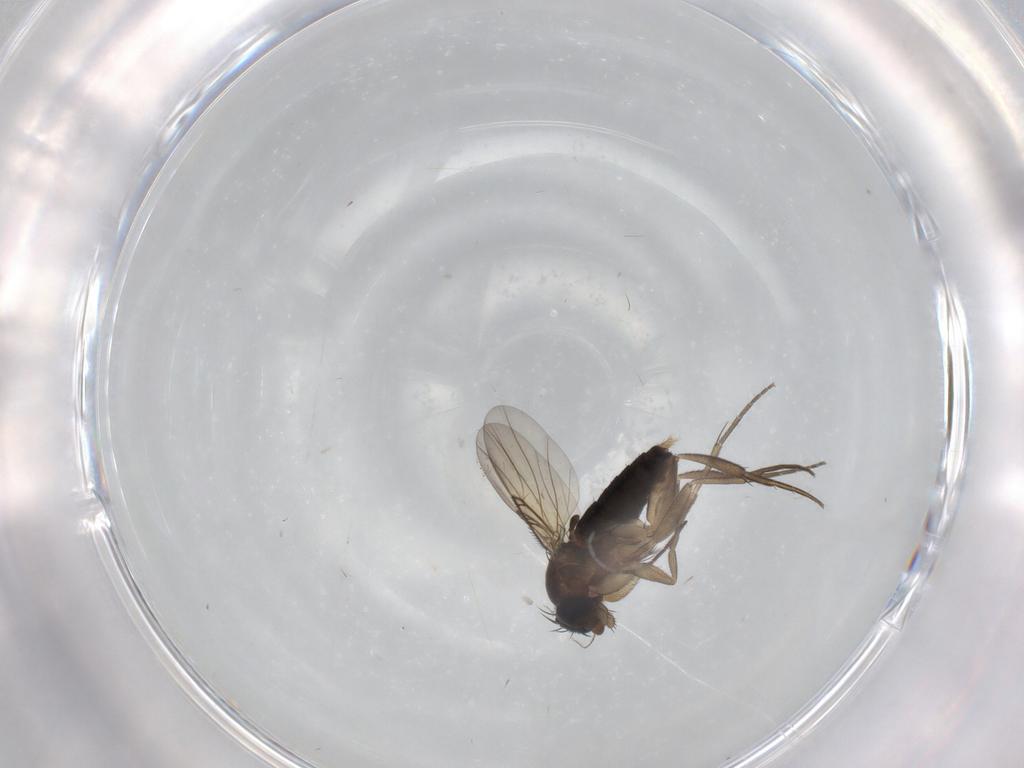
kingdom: Animalia
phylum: Arthropoda
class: Insecta
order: Diptera
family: Phoridae
